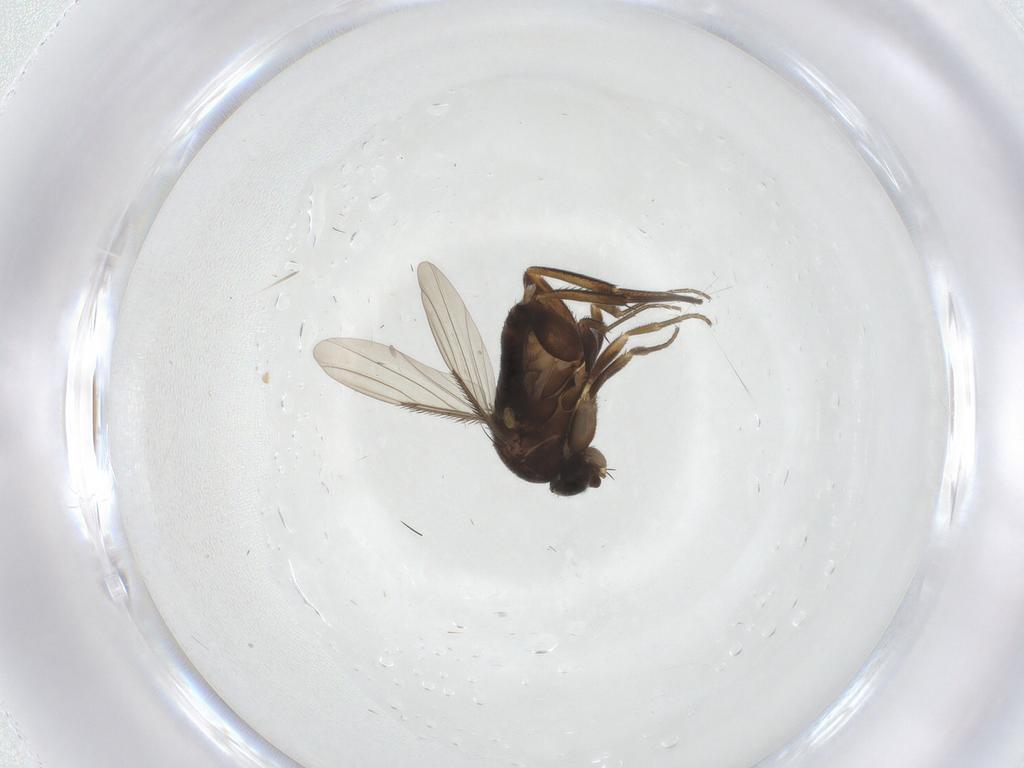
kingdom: Animalia
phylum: Arthropoda
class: Insecta
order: Diptera
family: Phoridae
